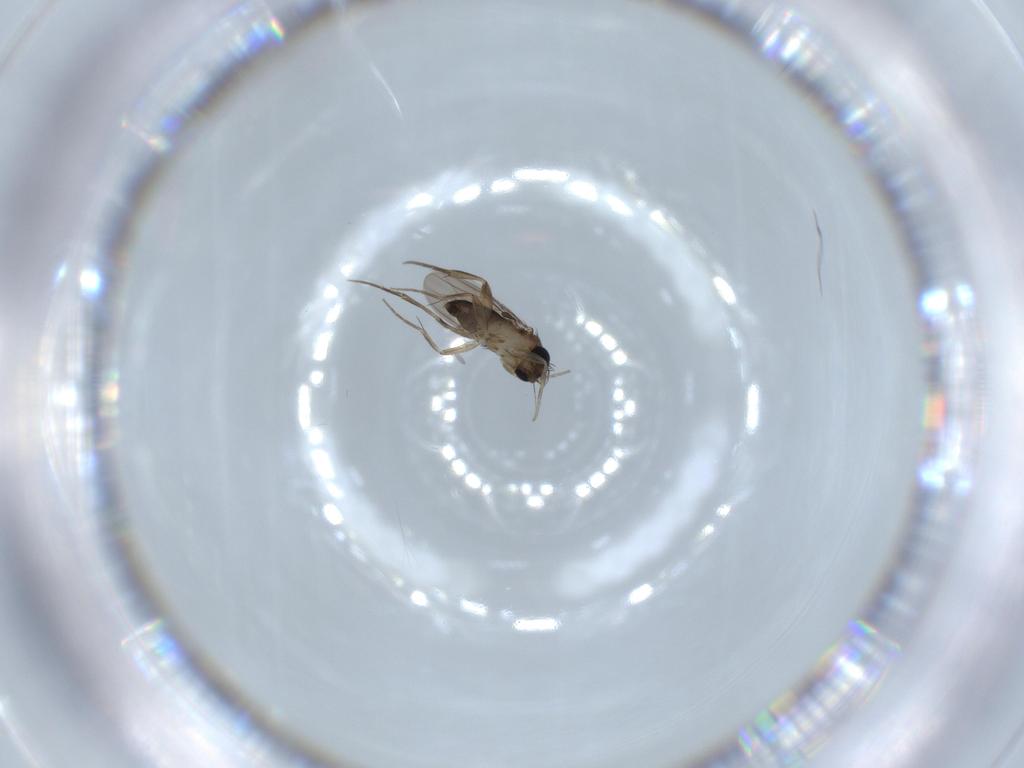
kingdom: Animalia
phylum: Arthropoda
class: Insecta
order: Diptera
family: Phoridae
